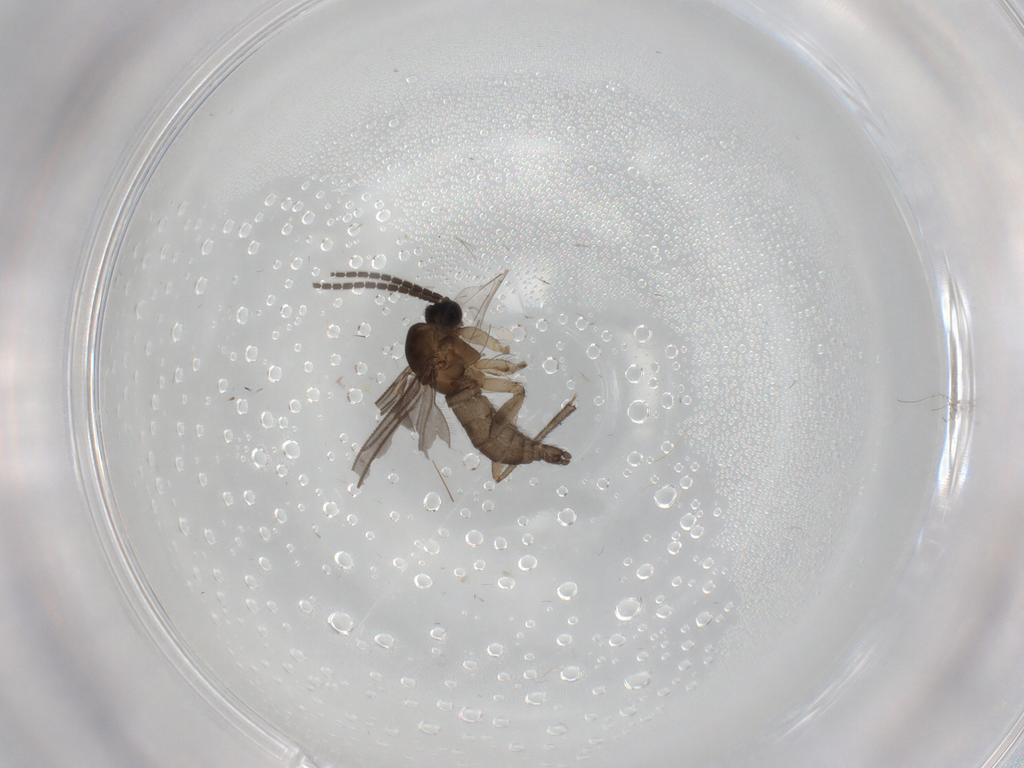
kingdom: Animalia
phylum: Arthropoda
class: Insecta
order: Diptera
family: Sciaridae
